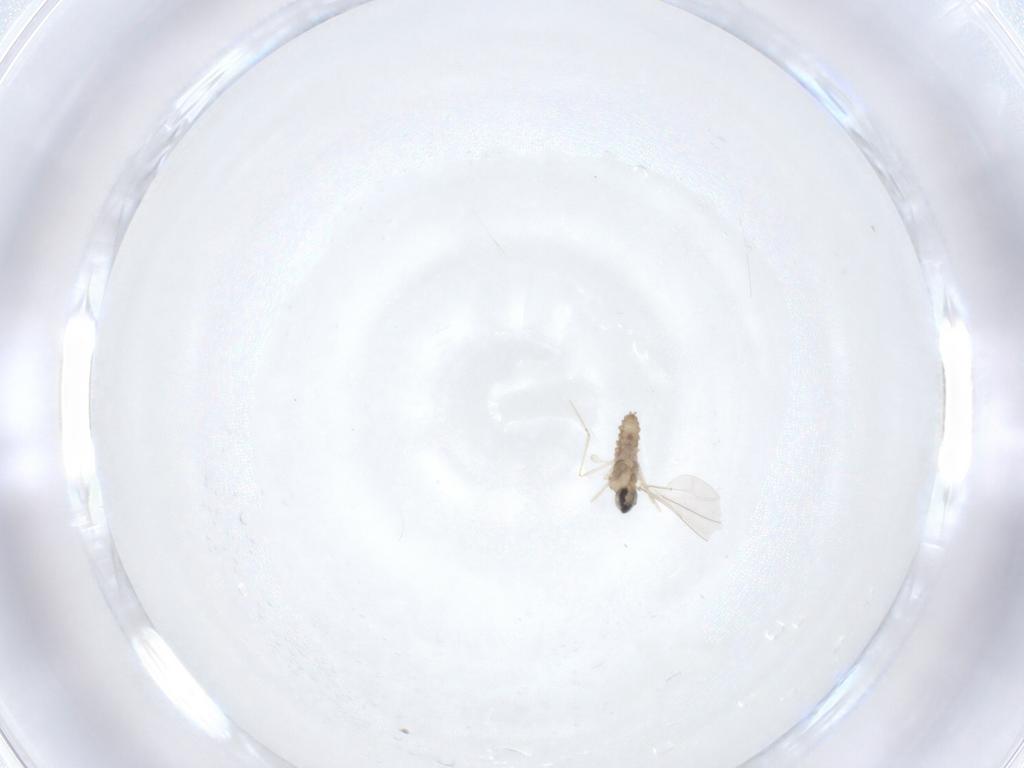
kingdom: Animalia
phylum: Arthropoda
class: Insecta
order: Diptera
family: Cecidomyiidae
